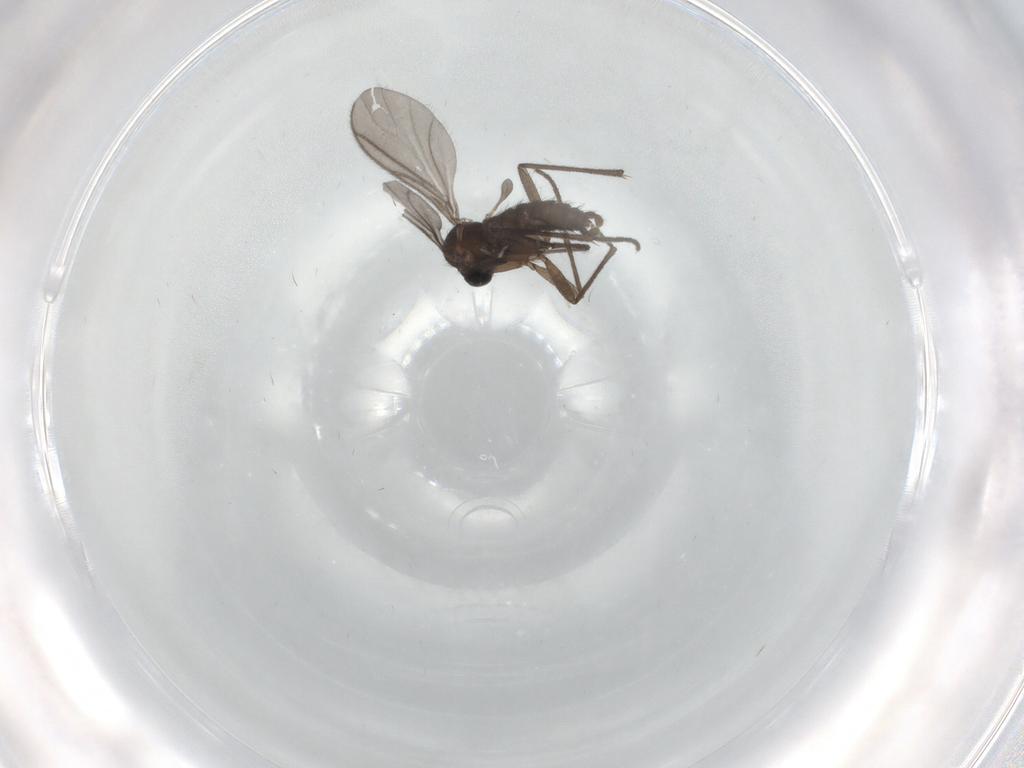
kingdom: Animalia
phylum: Arthropoda
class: Insecta
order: Diptera
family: Sciaridae
